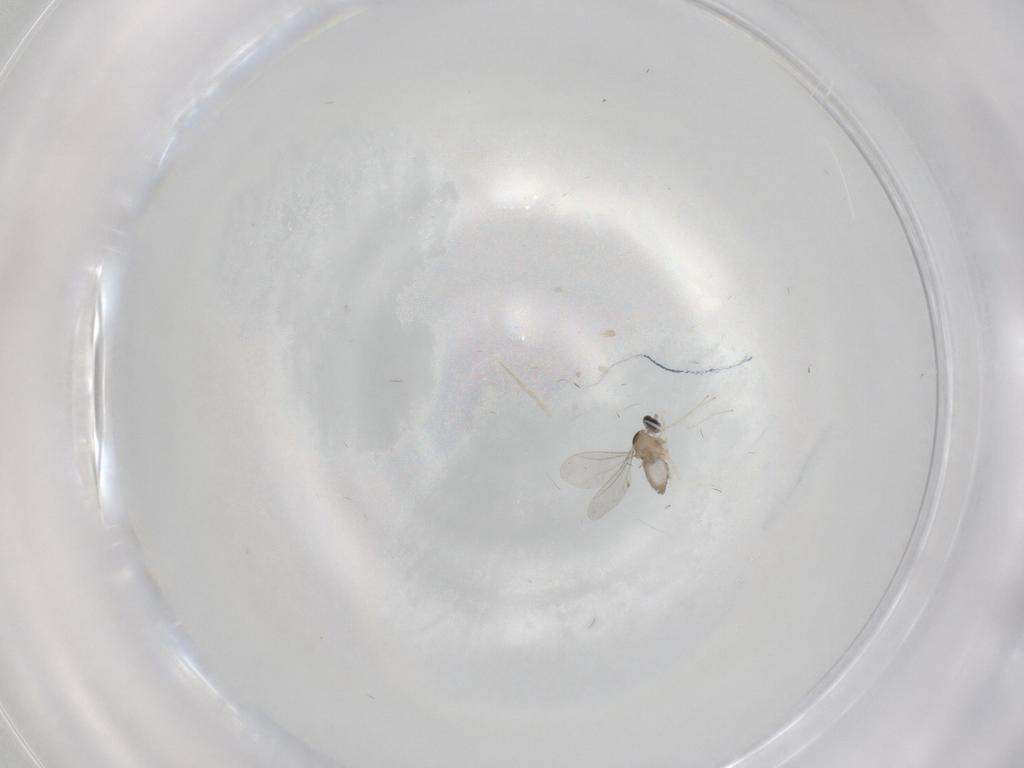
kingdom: Animalia
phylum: Arthropoda
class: Insecta
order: Diptera
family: Cecidomyiidae
